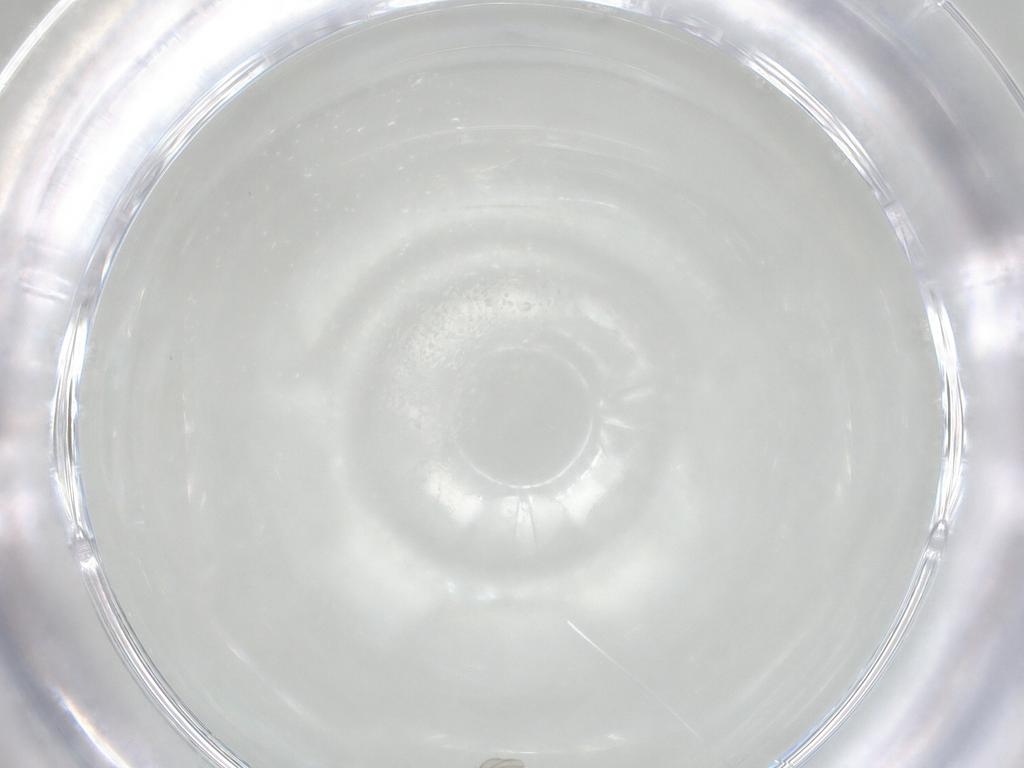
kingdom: Animalia
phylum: Arthropoda
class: Insecta
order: Diptera
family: Cecidomyiidae
